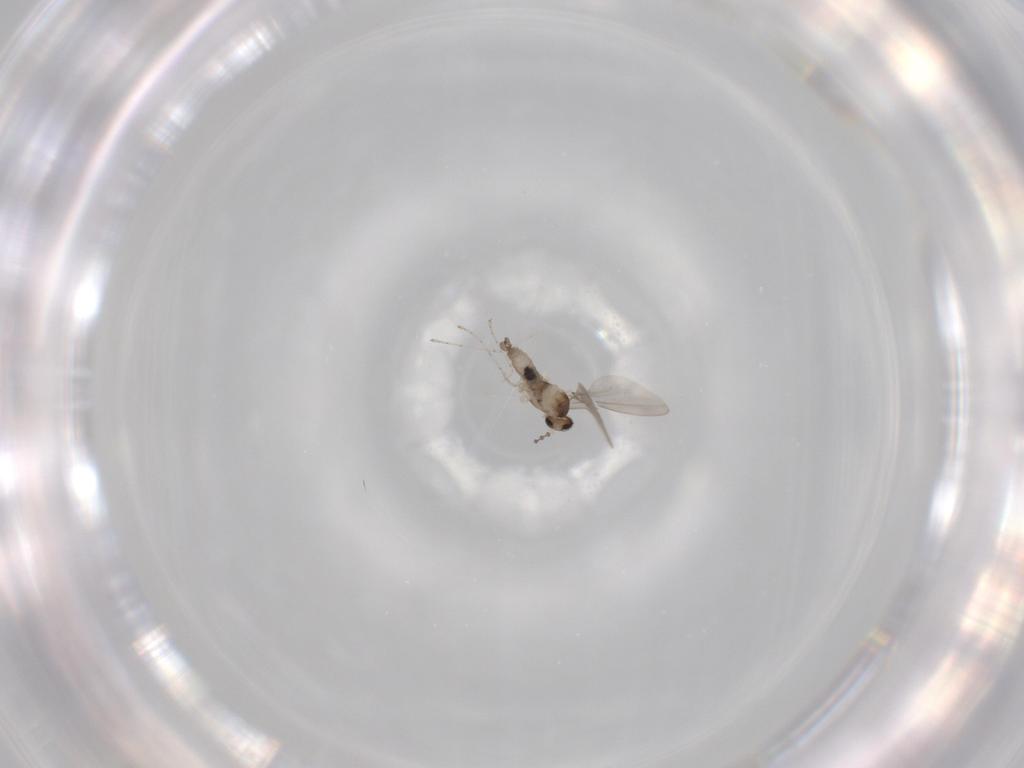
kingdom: Animalia
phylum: Arthropoda
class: Insecta
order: Diptera
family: Cecidomyiidae
